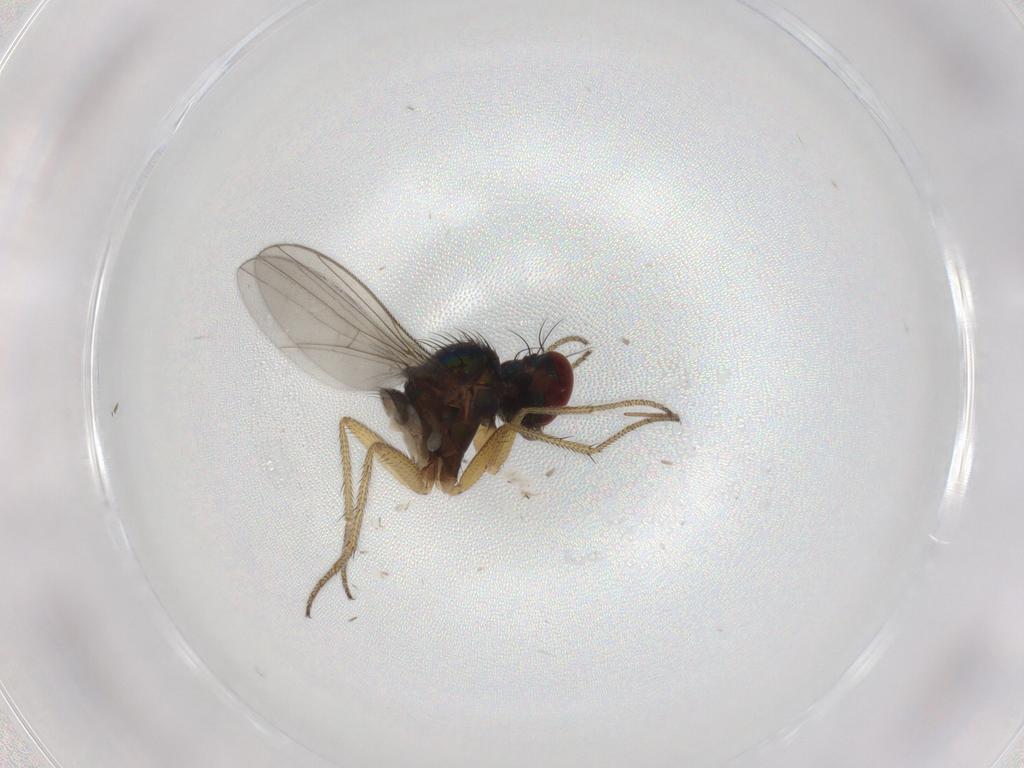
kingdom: Animalia
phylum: Arthropoda
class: Insecta
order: Diptera
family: Dolichopodidae
